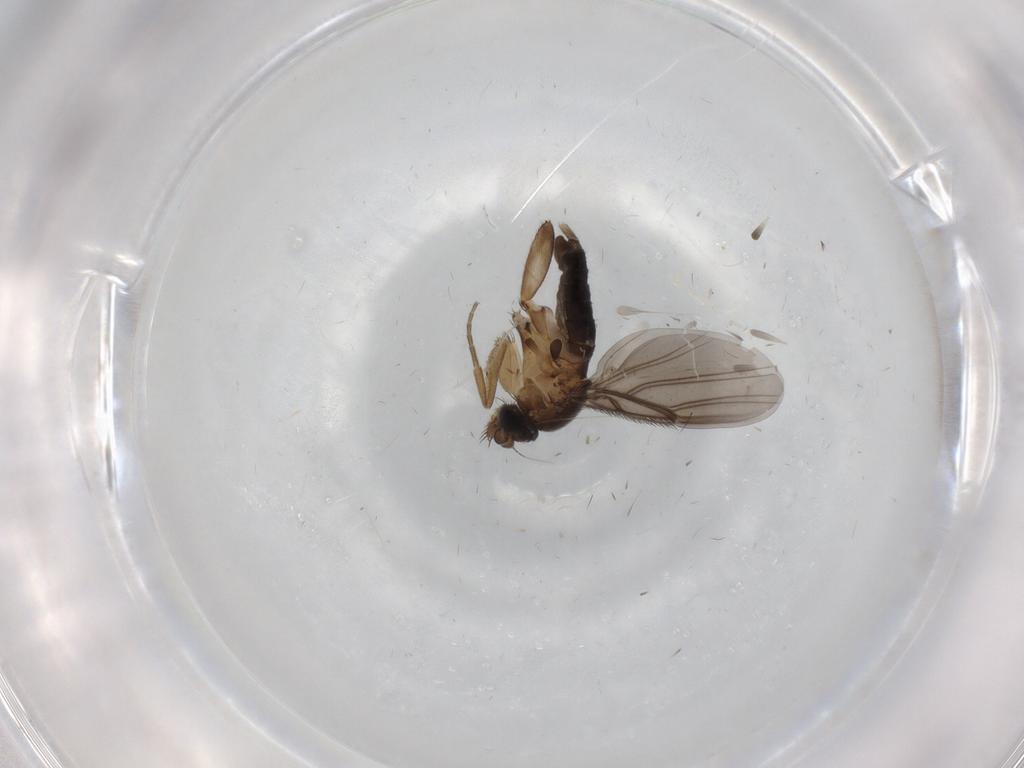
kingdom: Animalia
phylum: Arthropoda
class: Insecta
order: Diptera
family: Phoridae
